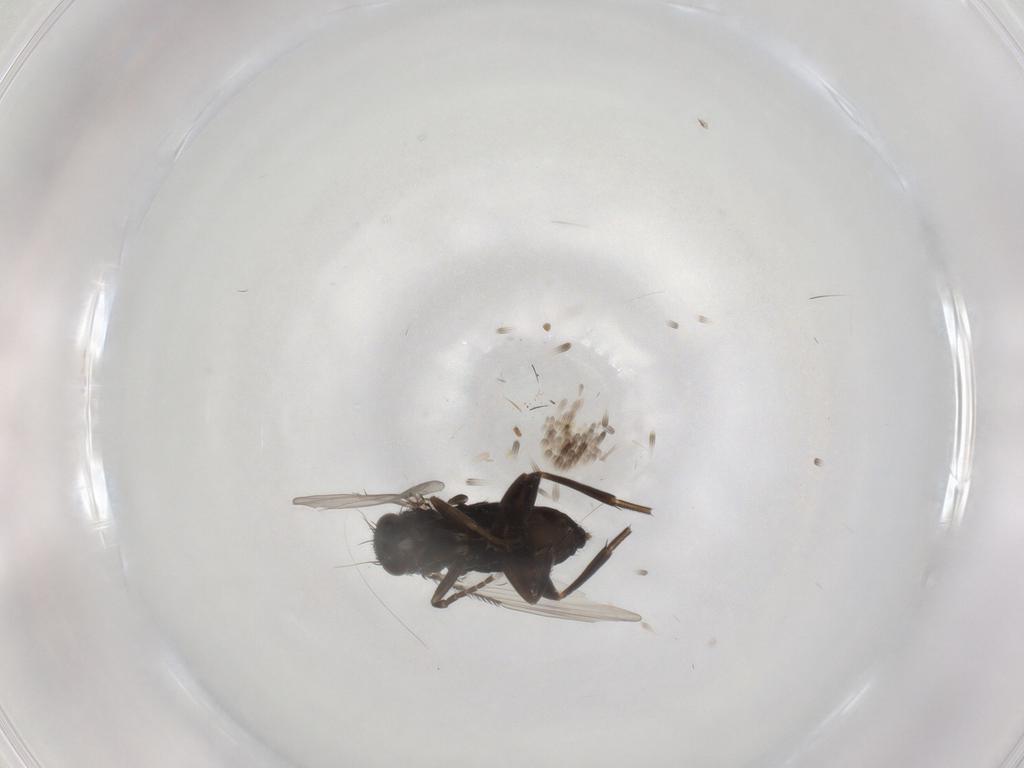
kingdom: Animalia
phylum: Arthropoda
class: Insecta
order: Diptera
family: Phoridae
